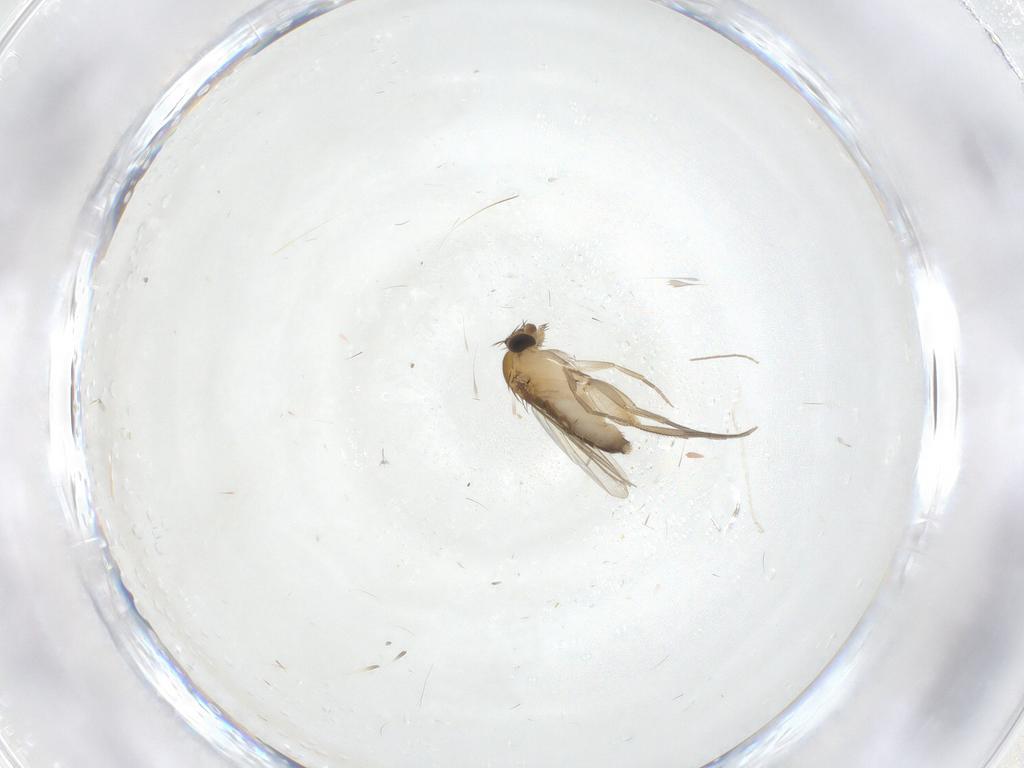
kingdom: Animalia
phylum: Arthropoda
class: Insecta
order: Diptera
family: Phoridae
